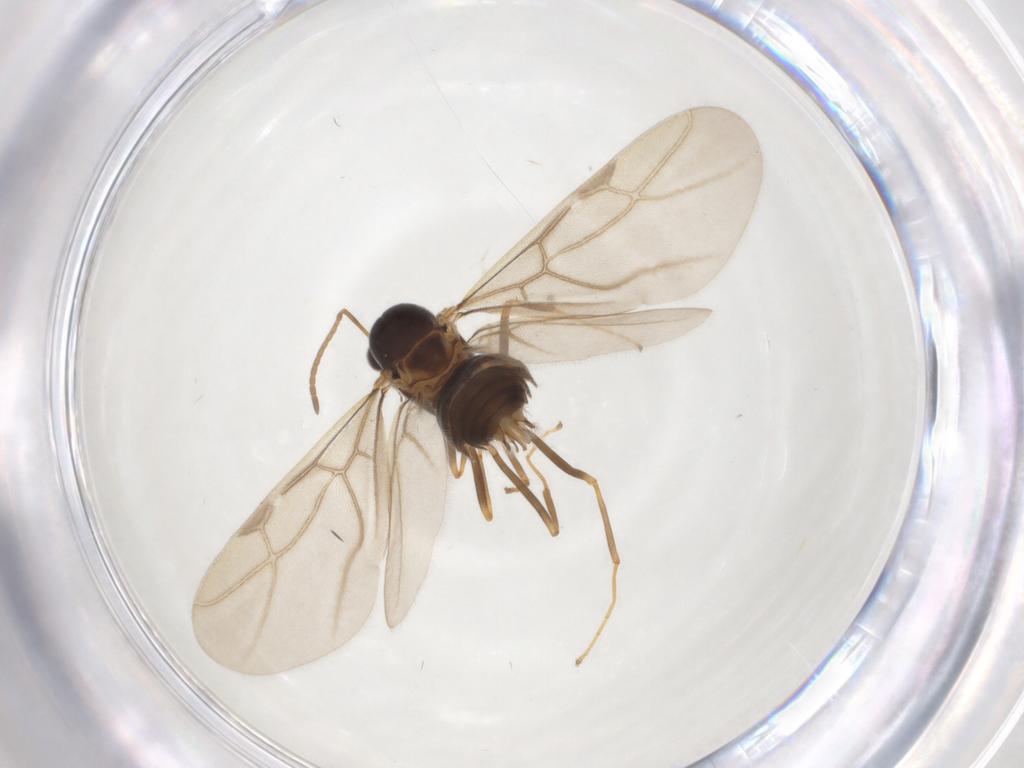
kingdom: Animalia
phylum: Arthropoda
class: Insecta
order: Hymenoptera
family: Formicidae
